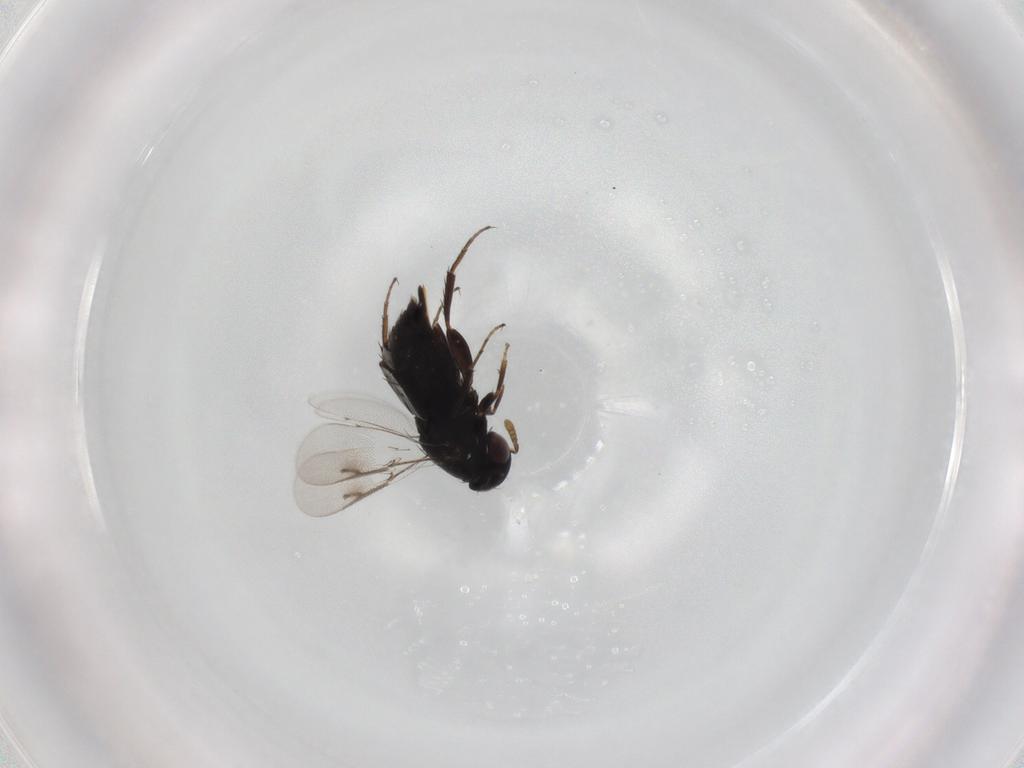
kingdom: Animalia
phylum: Arthropoda
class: Insecta
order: Hymenoptera
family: Pirenidae
